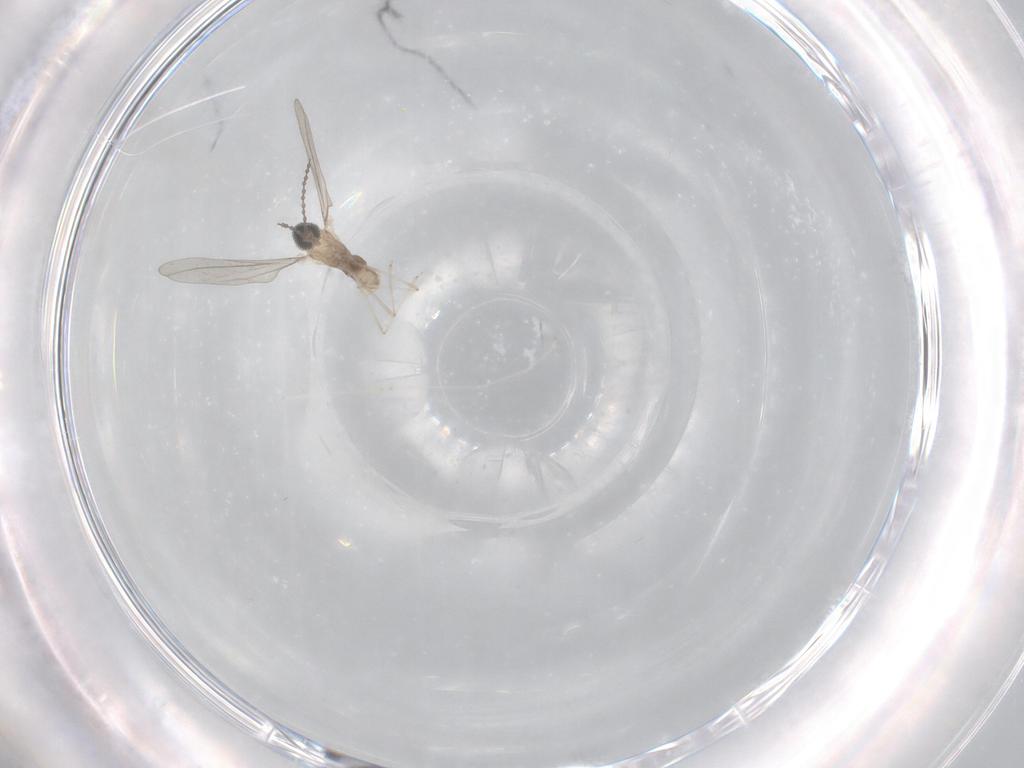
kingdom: Animalia
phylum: Arthropoda
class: Insecta
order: Diptera
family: Cecidomyiidae
